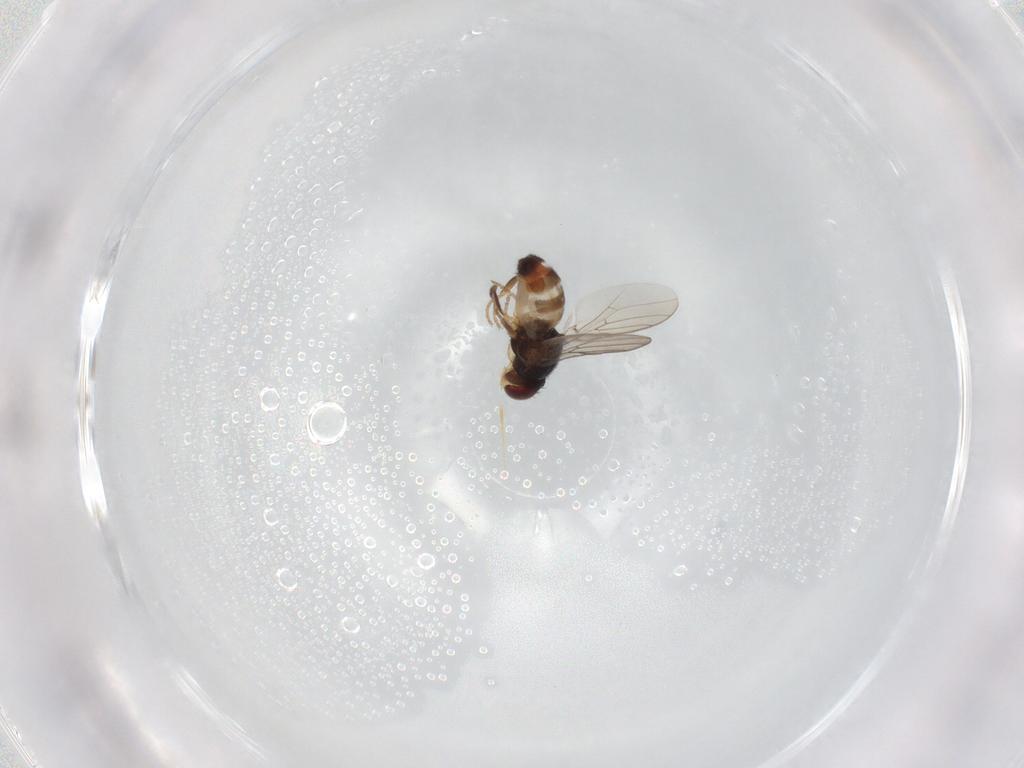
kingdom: Animalia
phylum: Arthropoda
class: Insecta
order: Diptera
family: Chloropidae
